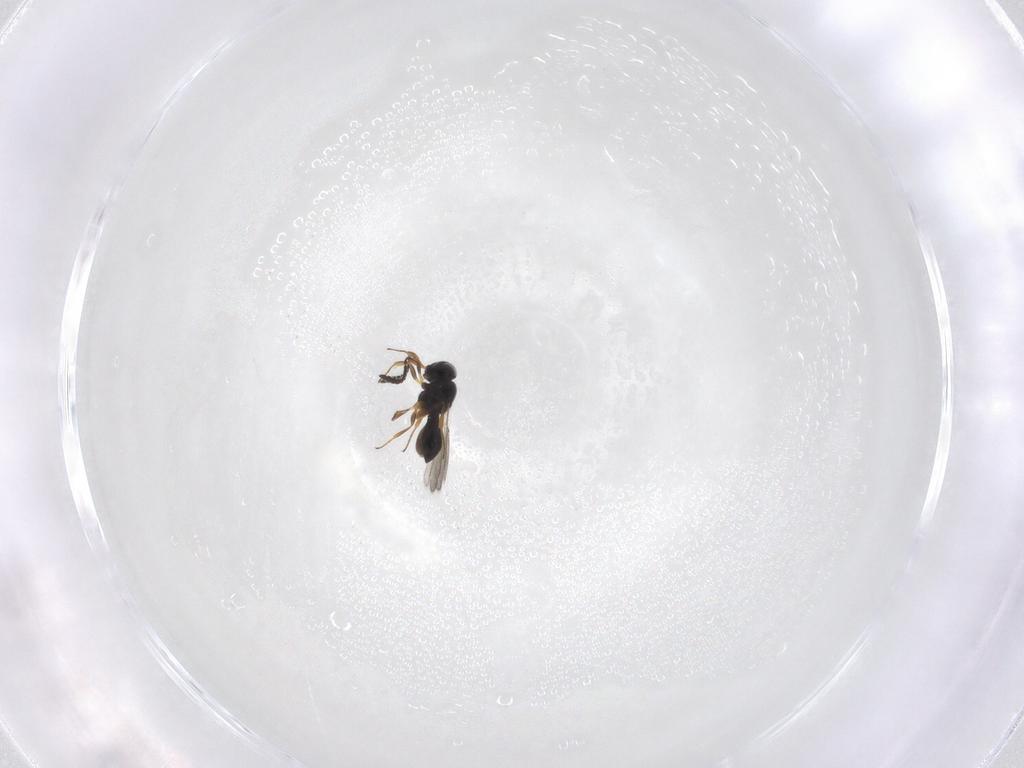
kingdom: Animalia
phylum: Arthropoda
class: Insecta
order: Hymenoptera
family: Scelionidae
